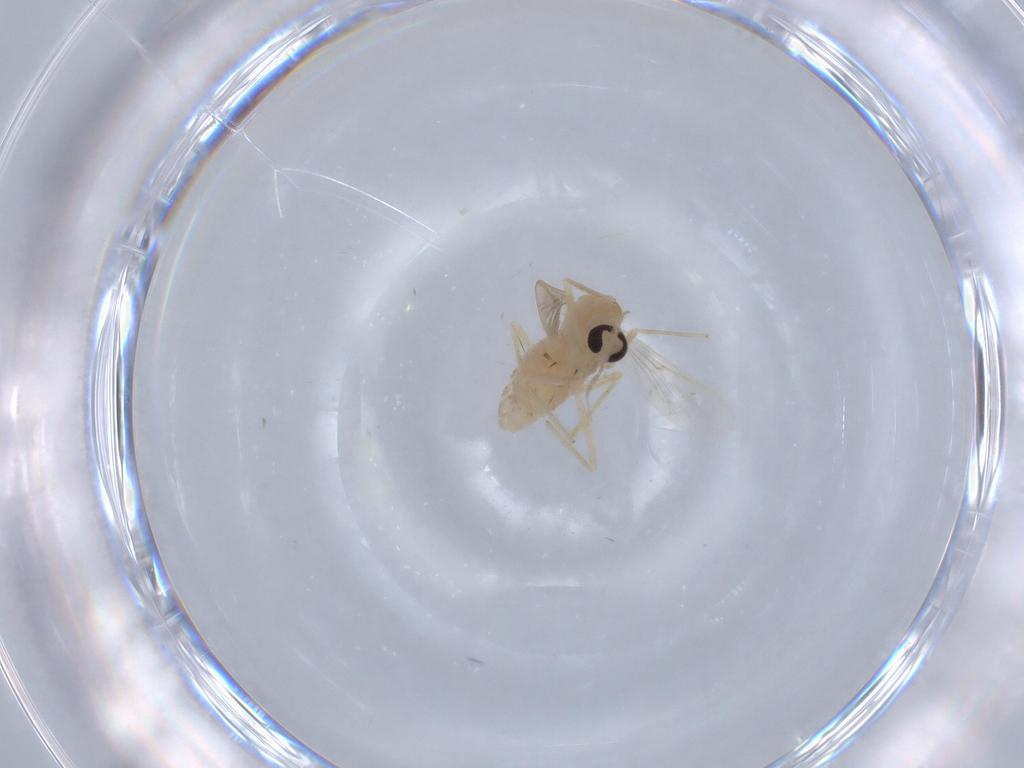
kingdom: Animalia
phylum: Arthropoda
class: Insecta
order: Diptera
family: Chironomidae
